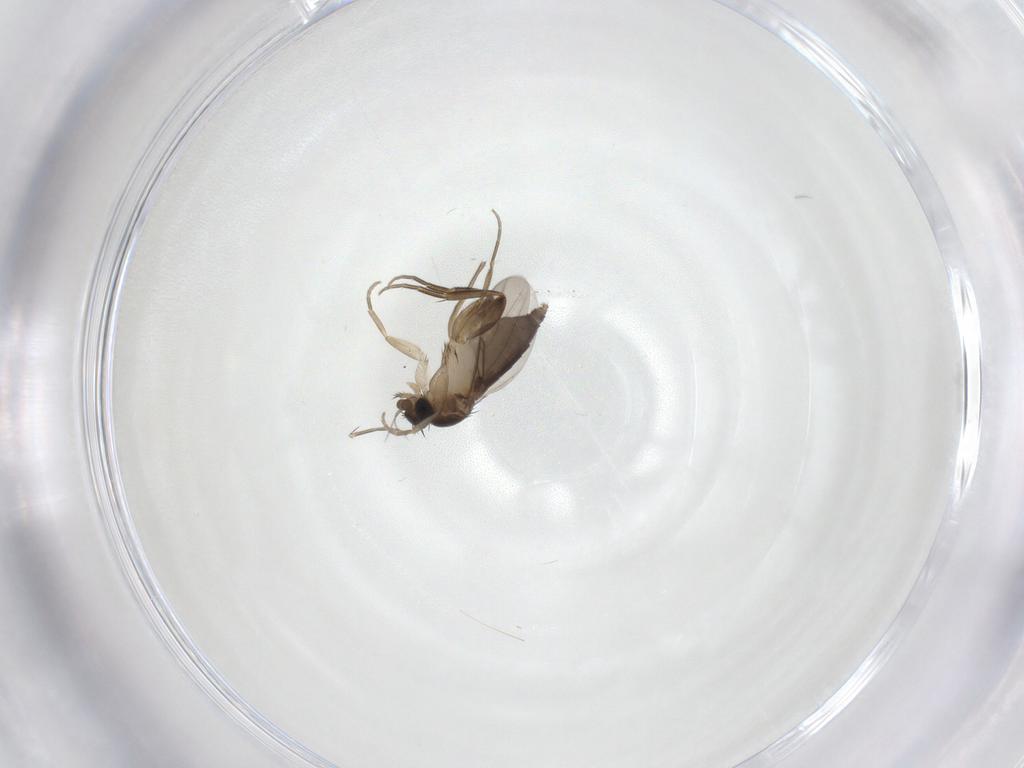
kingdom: Animalia
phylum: Arthropoda
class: Insecta
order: Diptera
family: Phoridae
